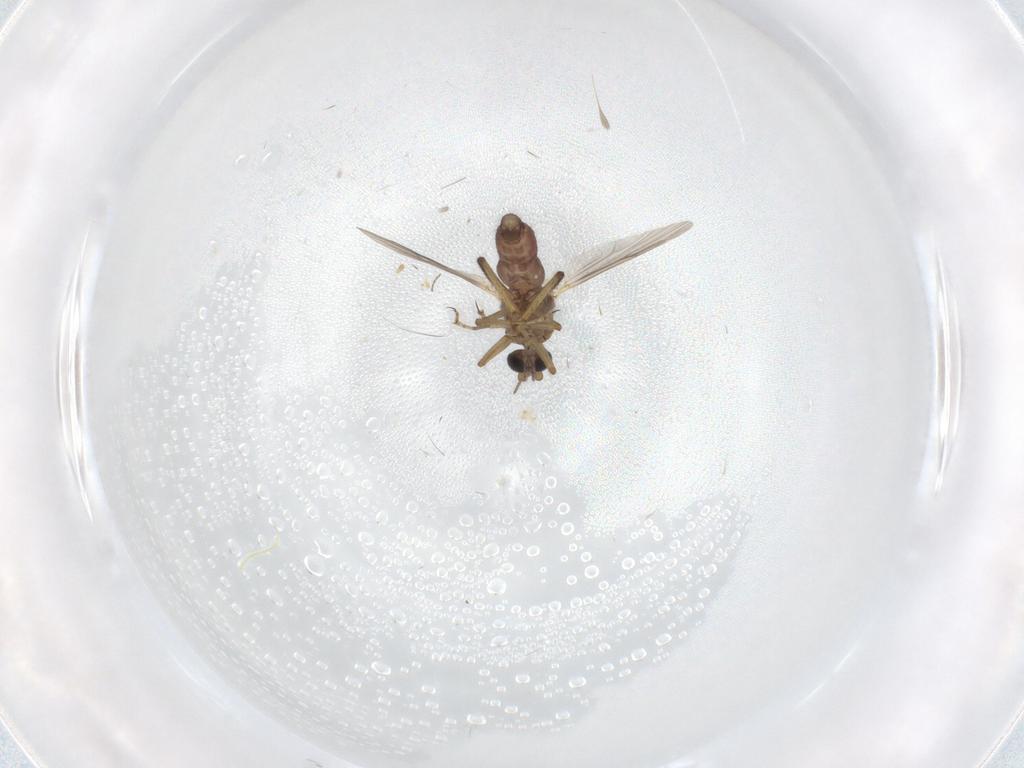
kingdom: Animalia
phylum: Arthropoda
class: Insecta
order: Diptera
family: Ceratopogonidae
